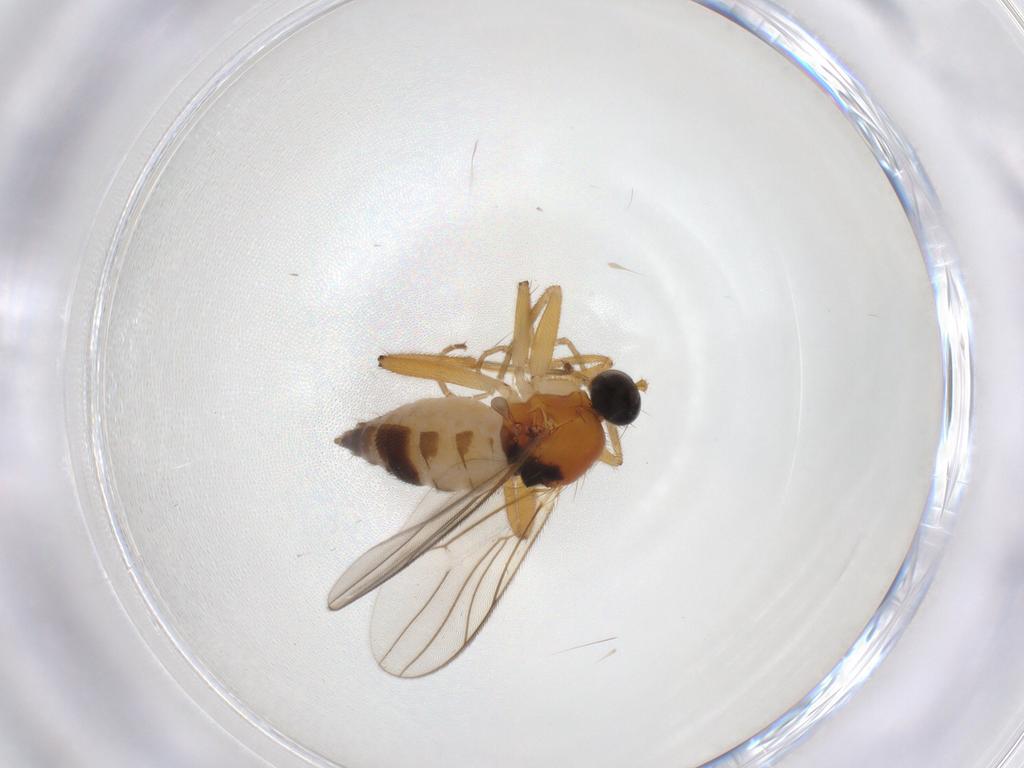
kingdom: Animalia
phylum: Arthropoda
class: Insecta
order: Diptera
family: Hybotidae
